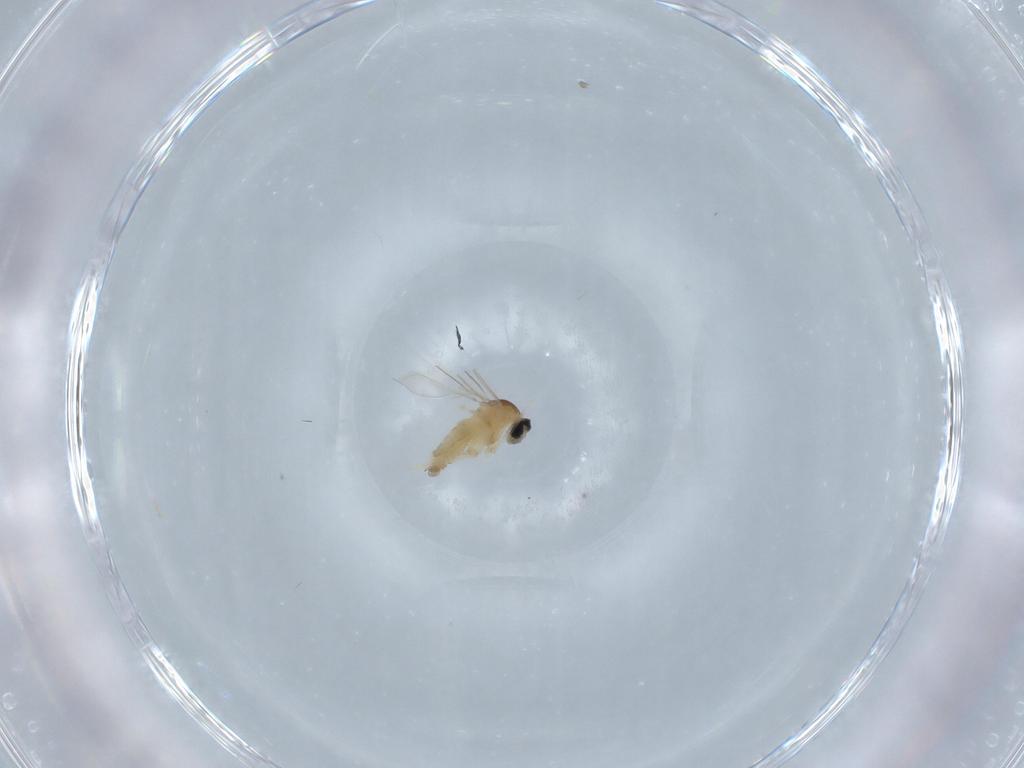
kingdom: Animalia
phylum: Arthropoda
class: Insecta
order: Diptera
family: Cecidomyiidae
